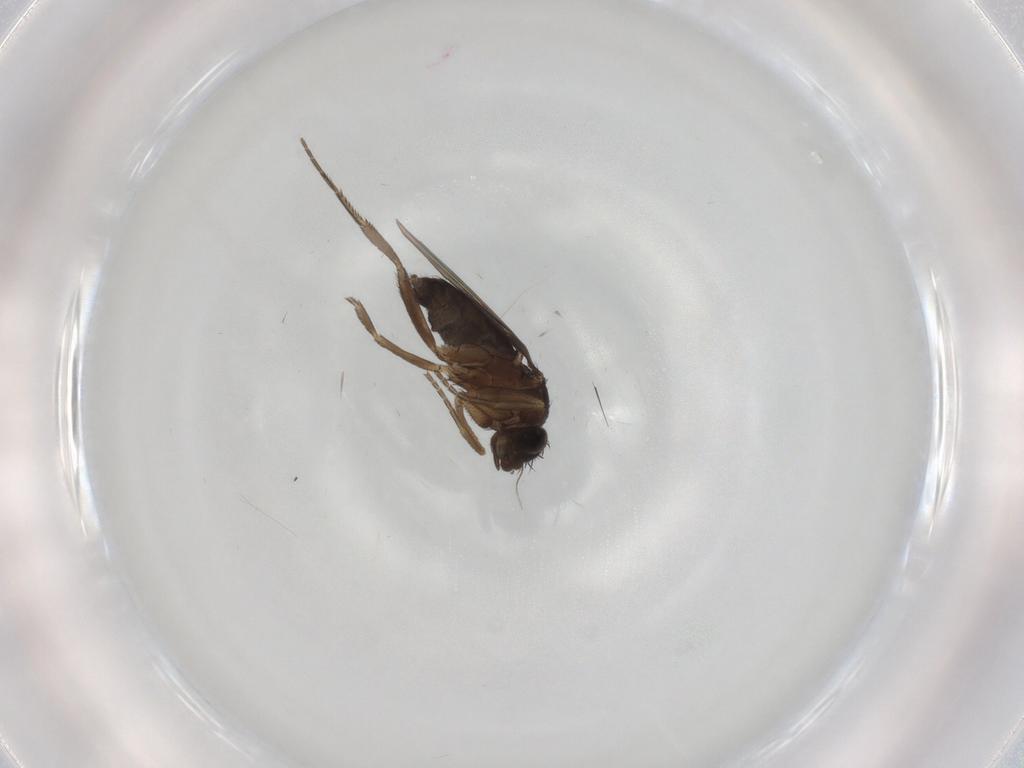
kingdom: Animalia
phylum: Arthropoda
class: Insecta
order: Diptera
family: Phoridae
